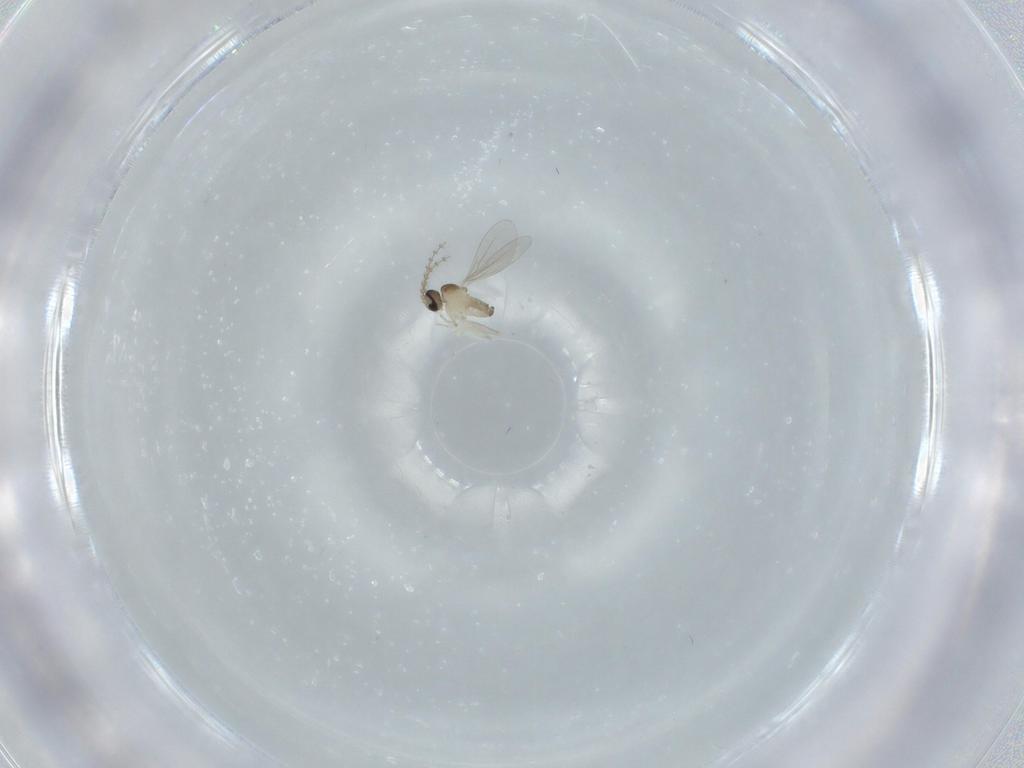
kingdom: Animalia
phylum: Arthropoda
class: Insecta
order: Diptera
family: Cecidomyiidae
